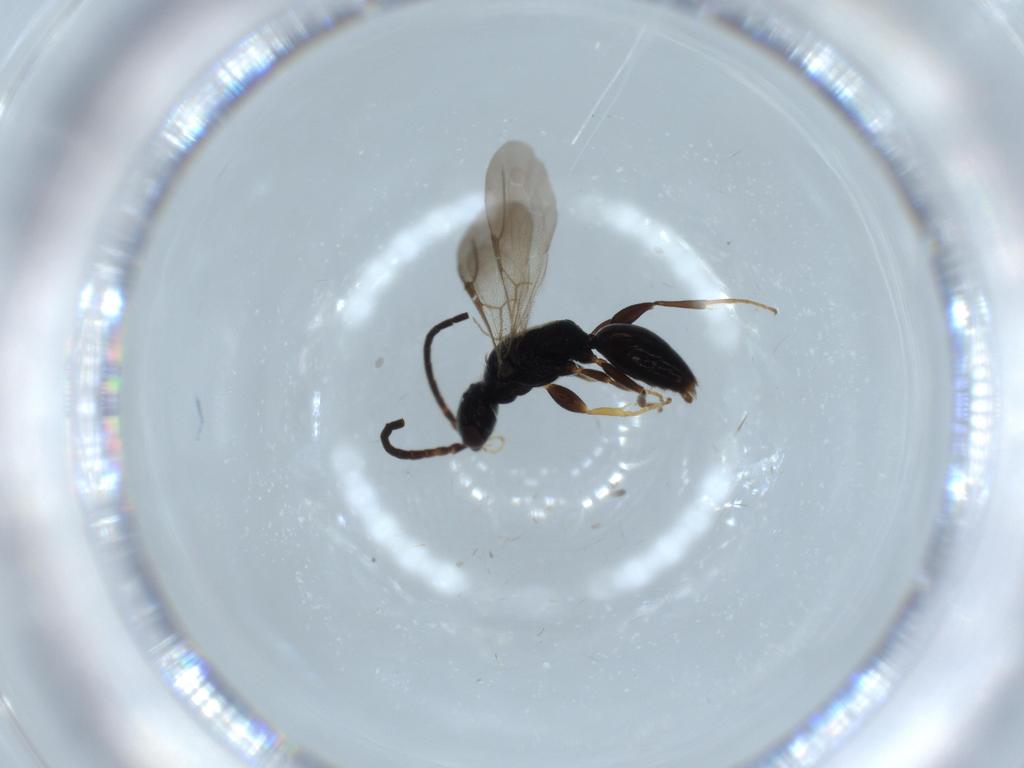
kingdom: Animalia
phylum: Arthropoda
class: Insecta
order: Hymenoptera
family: Bethylidae
